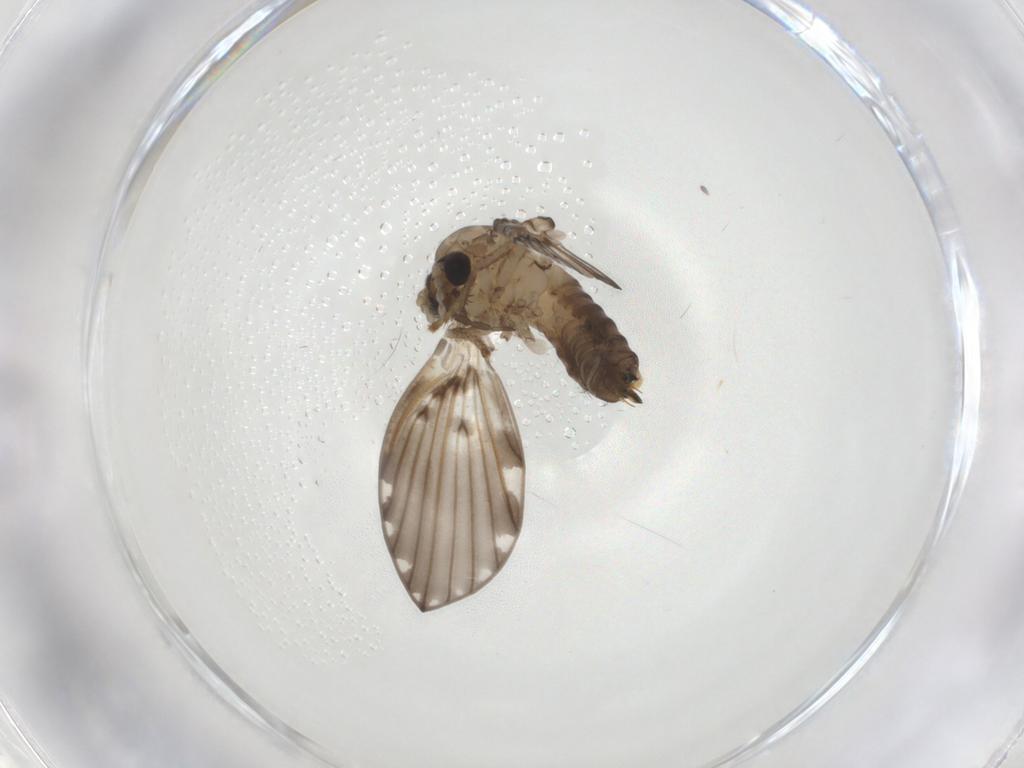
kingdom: Animalia
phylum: Arthropoda
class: Insecta
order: Diptera
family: Psychodidae
